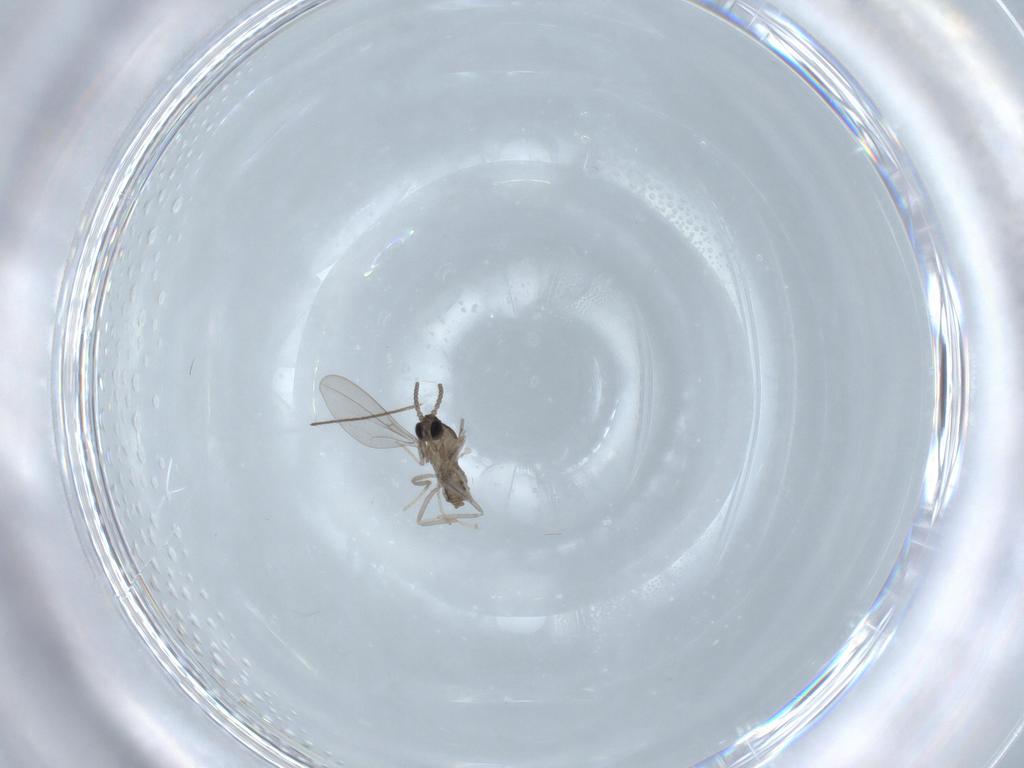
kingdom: Animalia
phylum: Arthropoda
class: Insecta
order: Diptera
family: Cecidomyiidae
